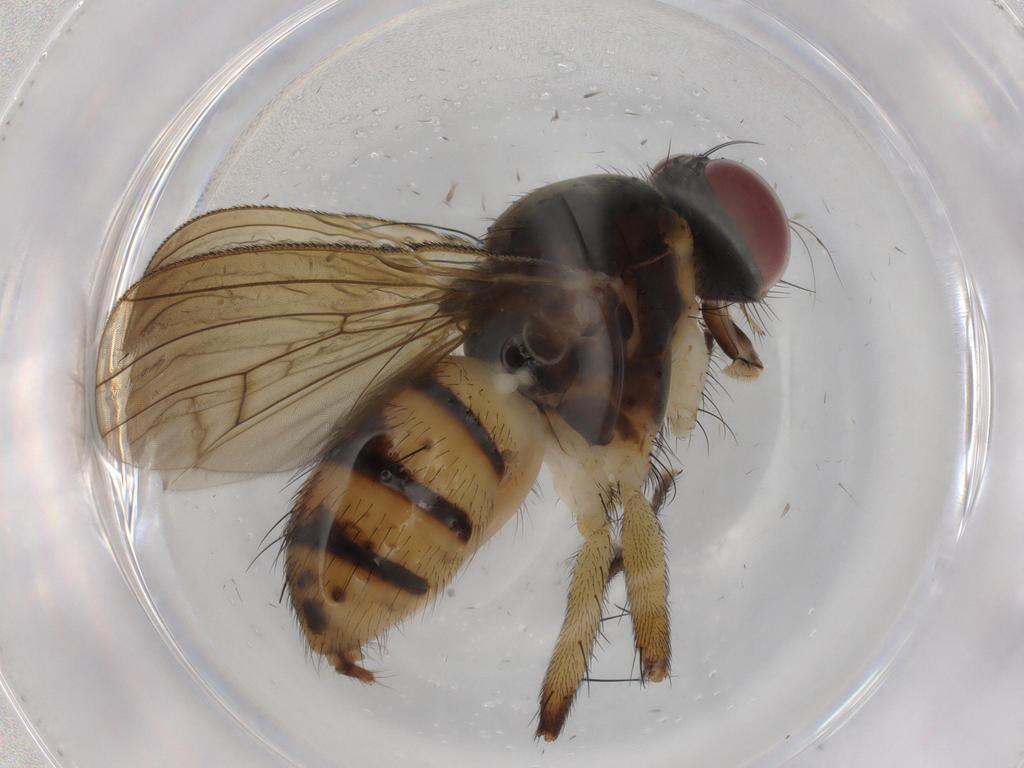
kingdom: Animalia
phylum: Arthropoda
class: Insecta
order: Diptera
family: Muscidae
